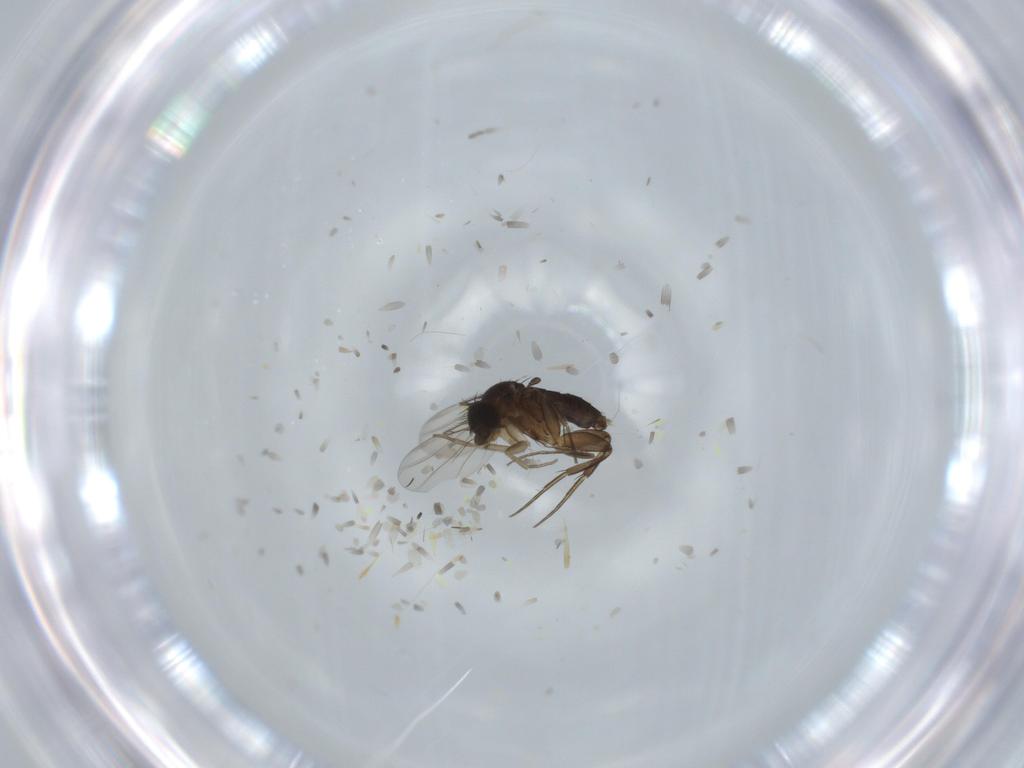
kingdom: Animalia
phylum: Arthropoda
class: Insecta
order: Diptera
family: Phoridae
